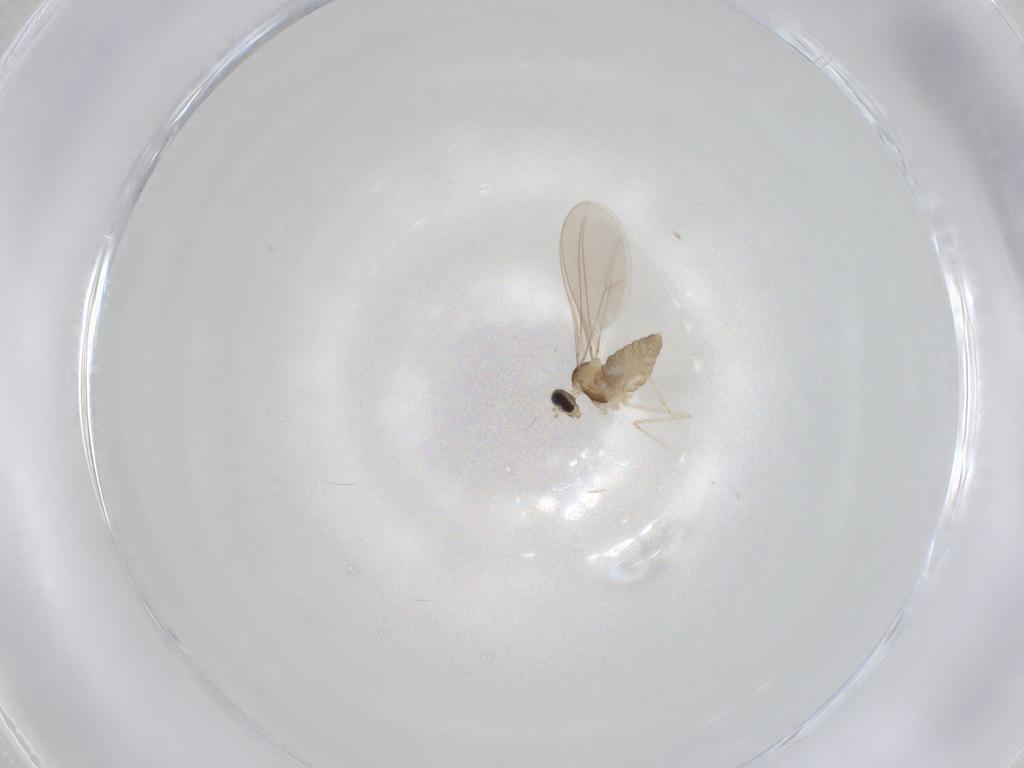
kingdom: Animalia
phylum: Arthropoda
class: Insecta
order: Diptera
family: Cecidomyiidae
